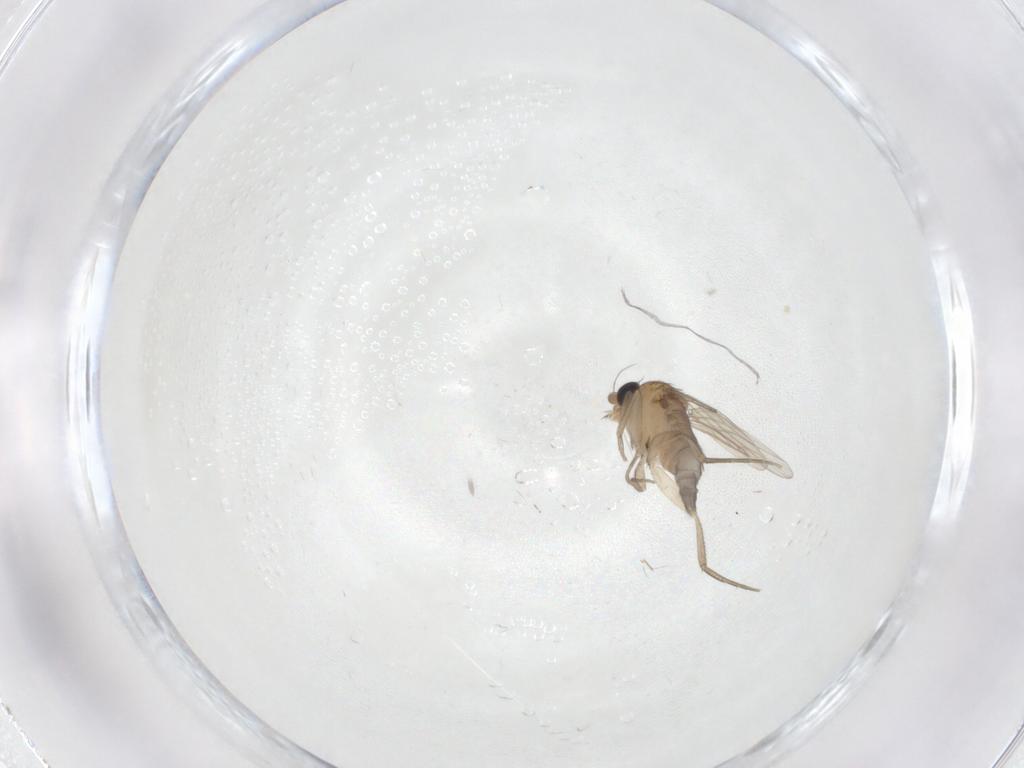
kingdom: Animalia
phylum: Arthropoda
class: Insecta
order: Diptera
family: Phoridae
